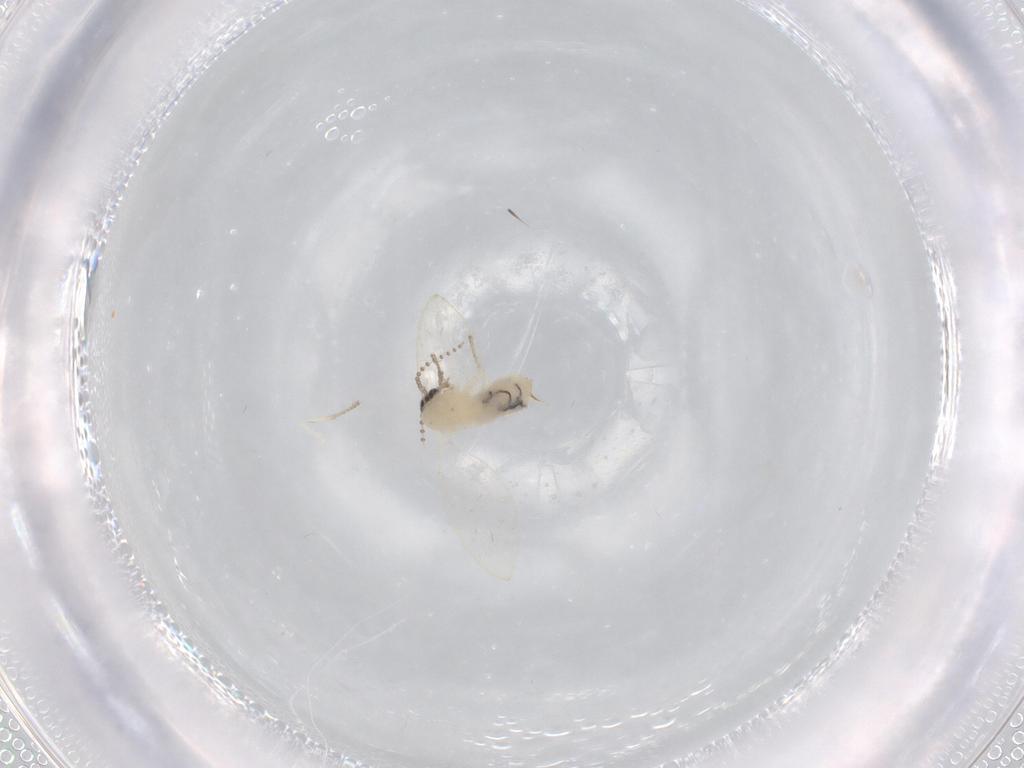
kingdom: Animalia
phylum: Arthropoda
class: Insecta
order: Diptera
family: Psychodidae
